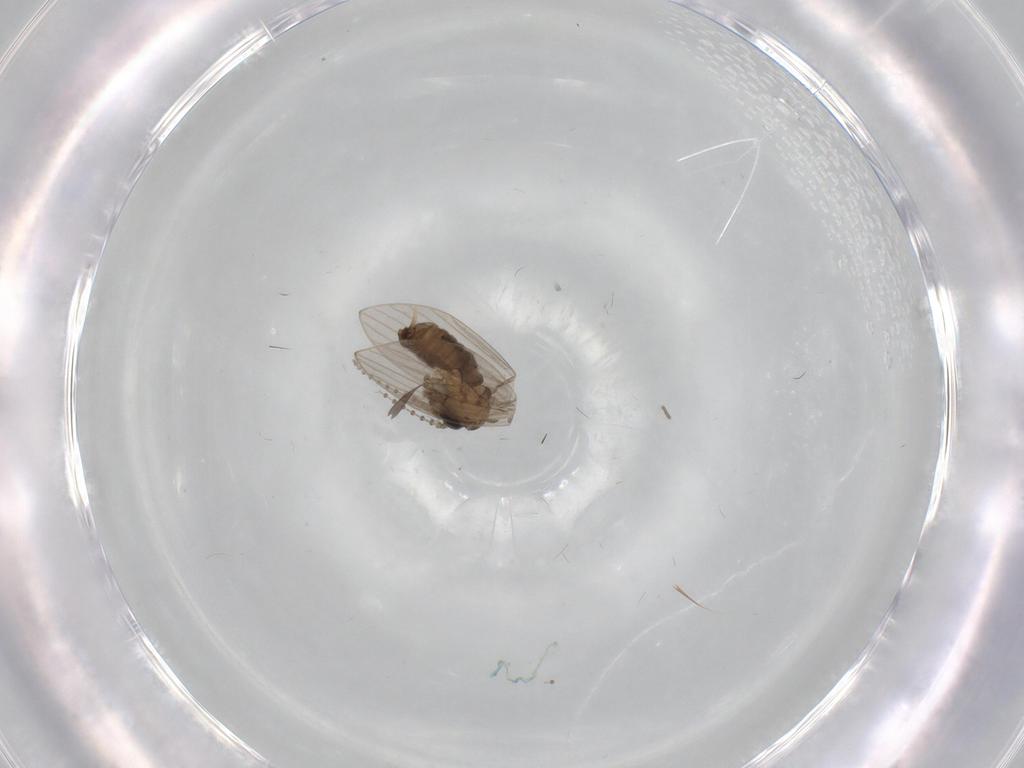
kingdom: Animalia
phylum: Arthropoda
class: Insecta
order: Diptera
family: Psychodidae
